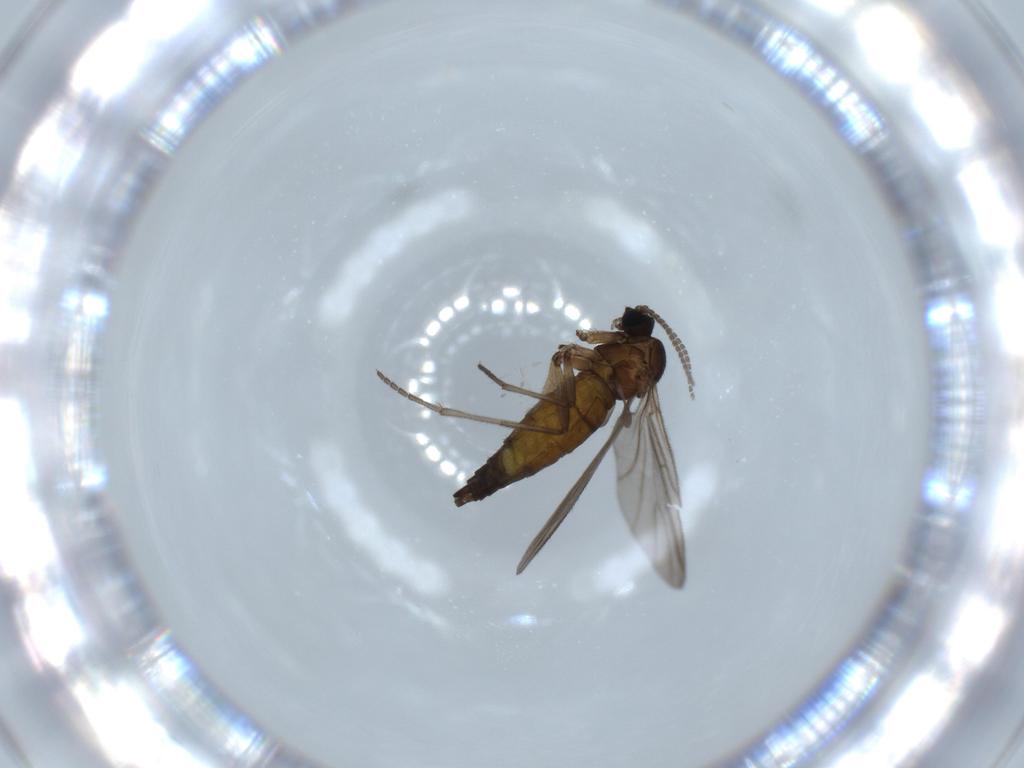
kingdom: Animalia
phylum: Arthropoda
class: Insecta
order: Diptera
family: Sciaridae
